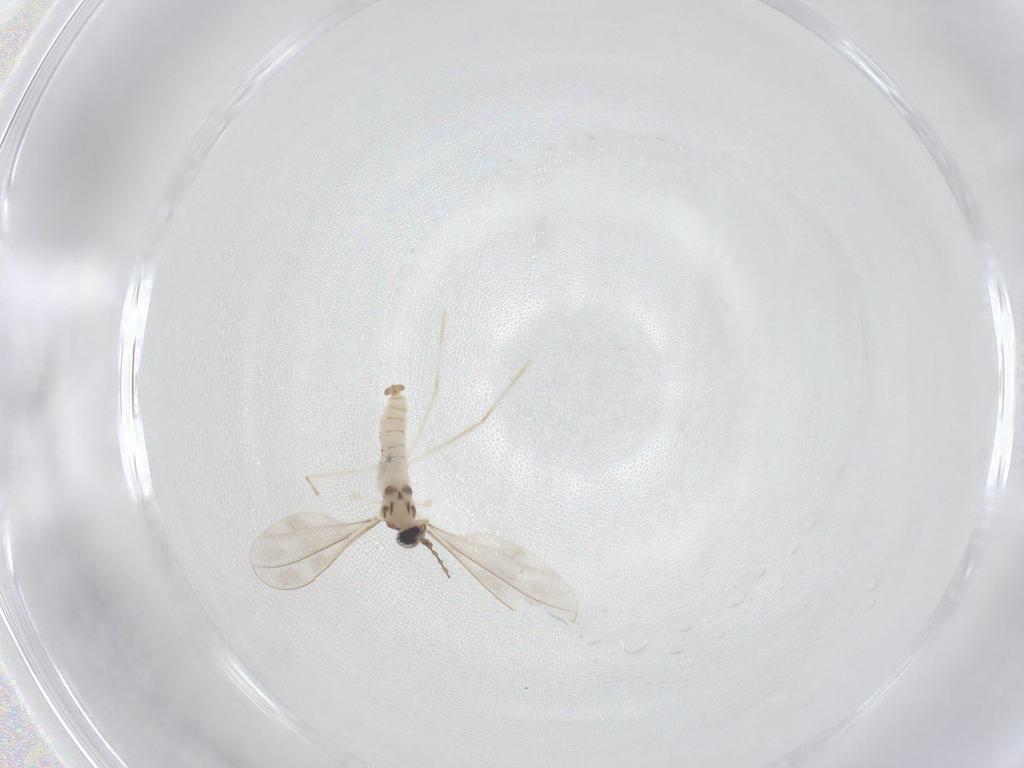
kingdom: Animalia
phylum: Arthropoda
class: Insecta
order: Diptera
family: Cecidomyiidae
